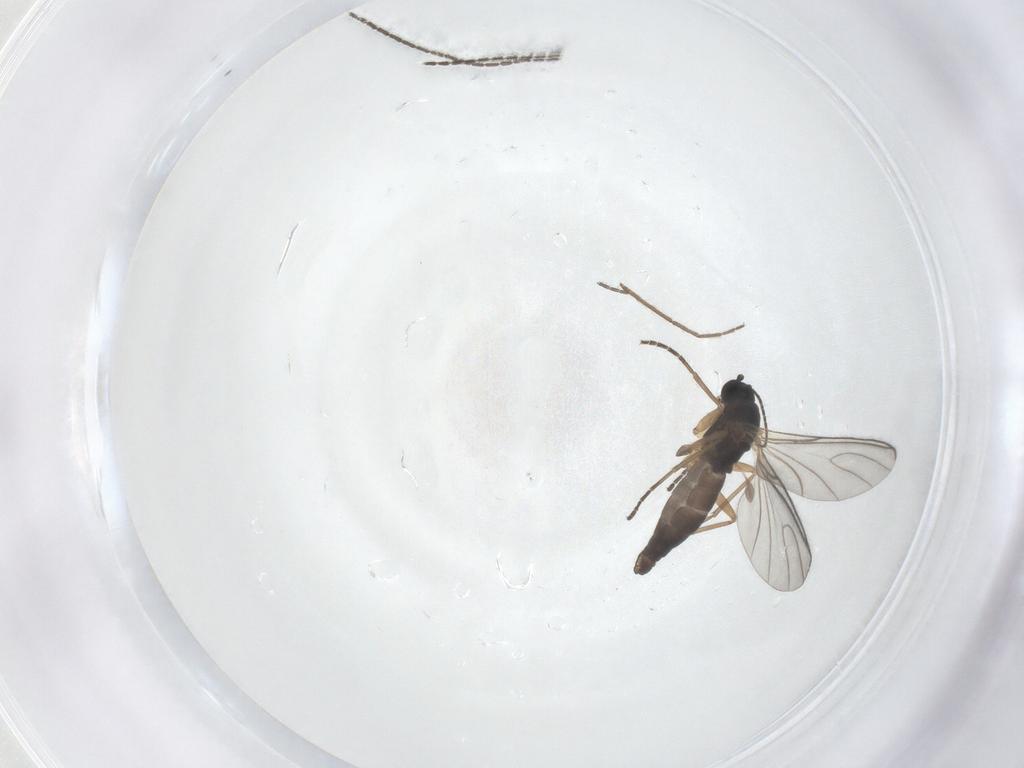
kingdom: Animalia
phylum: Arthropoda
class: Insecta
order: Diptera
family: Chironomidae
